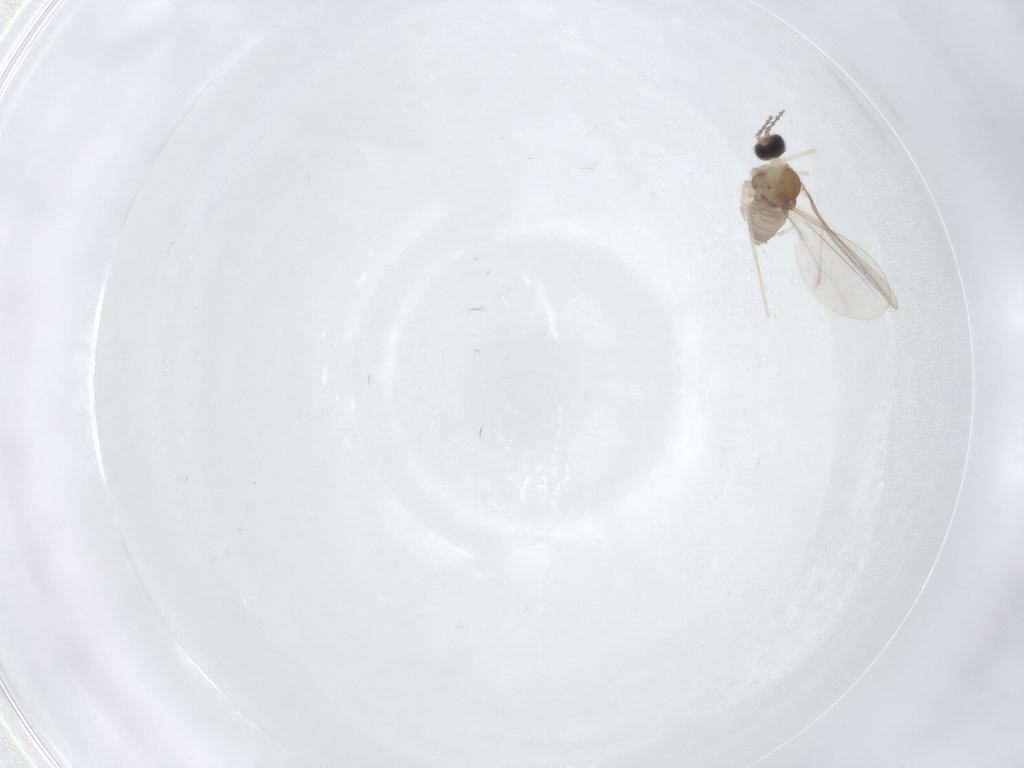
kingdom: Animalia
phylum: Arthropoda
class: Insecta
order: Diptera
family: Cecidomyiidae
